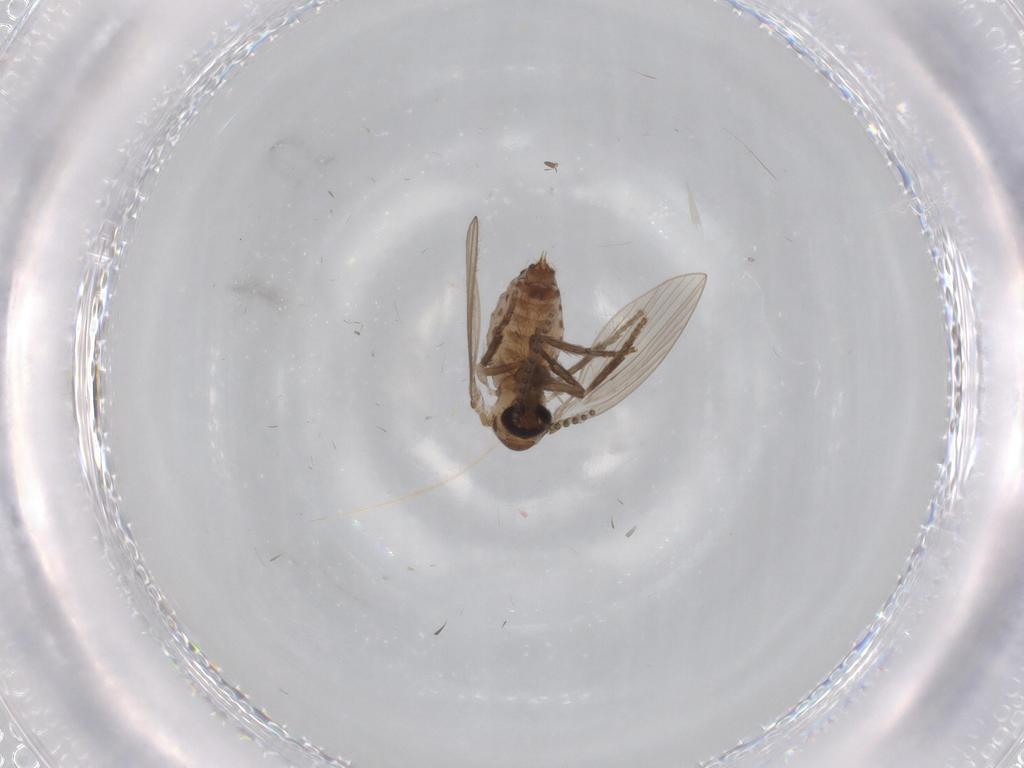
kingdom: Animalia
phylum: Arthropoda
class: Insecta
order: Diptera
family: Psychodidae
